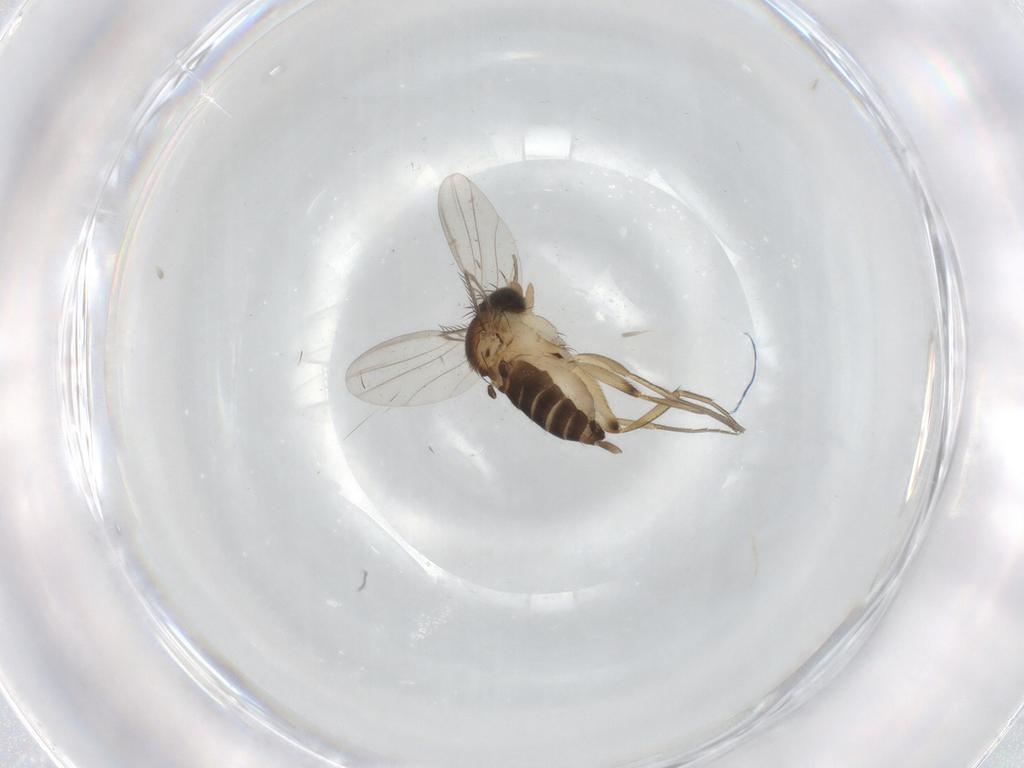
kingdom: Animalia
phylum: Arthropoda
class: Insecta
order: Diptera
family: Phoridae
